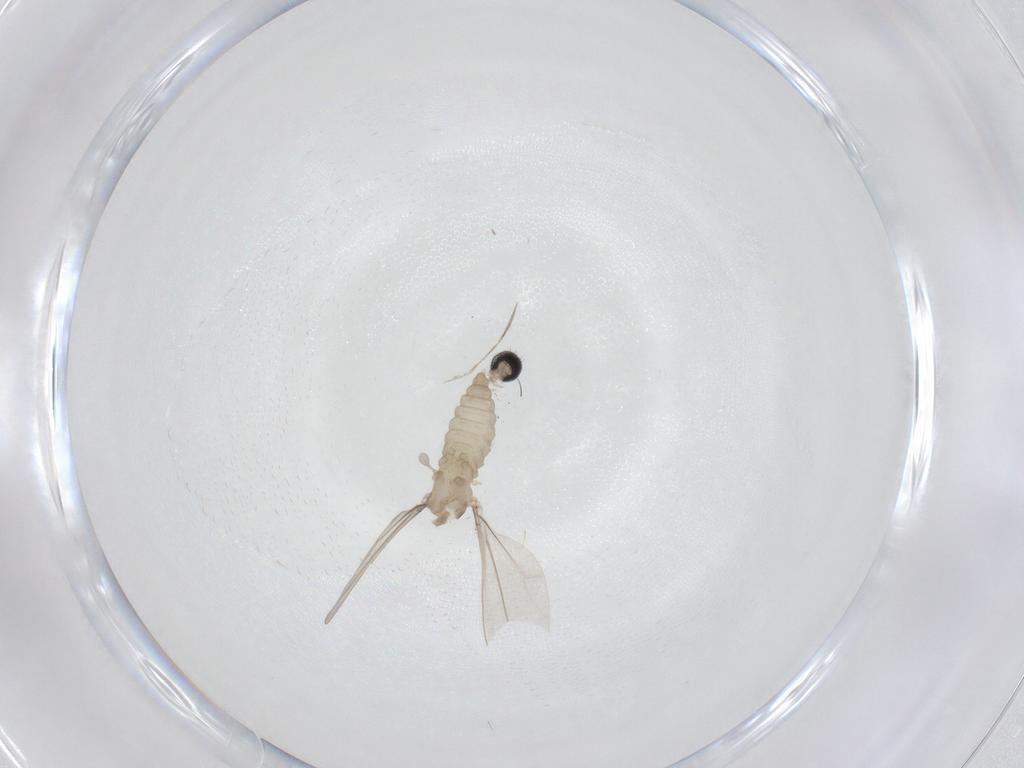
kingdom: Animalia
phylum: Arthropoda
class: Insecta
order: Diptera
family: Cecidomyiidae
